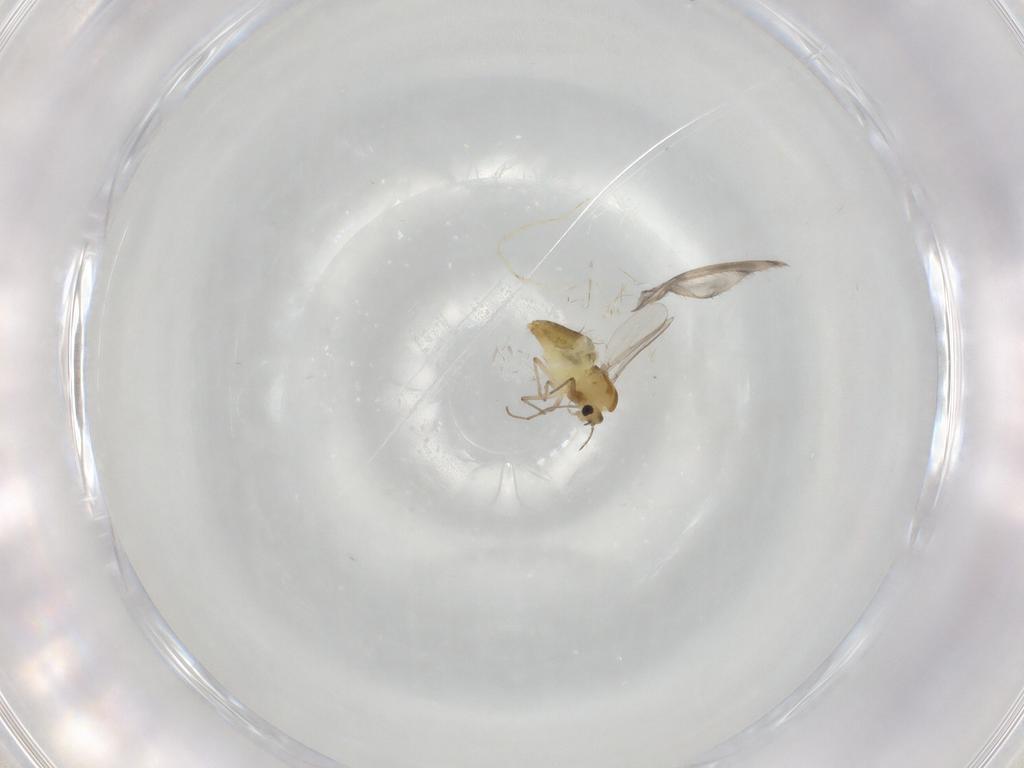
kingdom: Animalia
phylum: Arthropoda
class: Insecta
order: Diptera
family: Chironomidae
